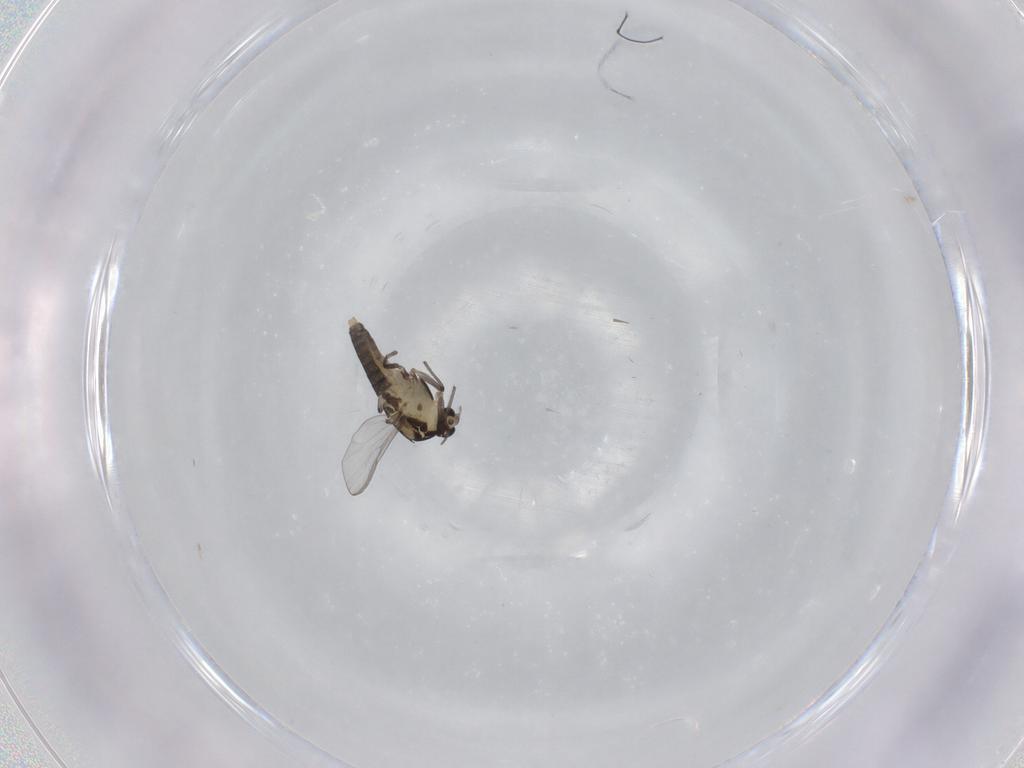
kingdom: Animalia
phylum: Arthropoda
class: Insecta
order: Diptera
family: Chironomidae
